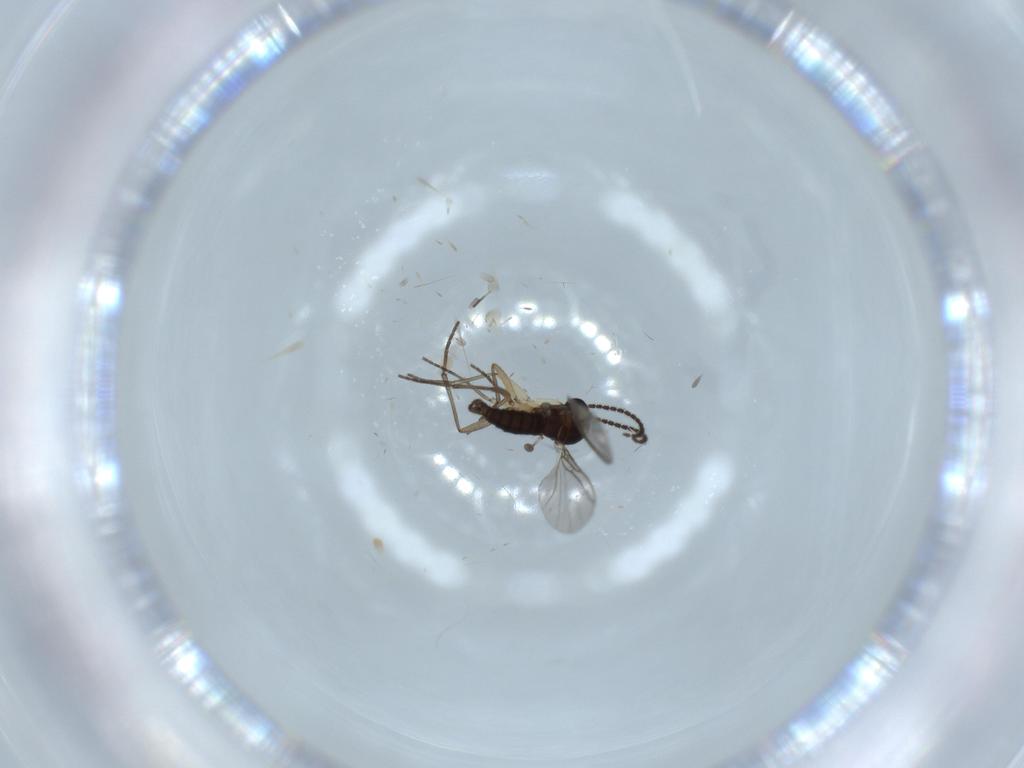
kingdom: Animalia
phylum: Arthropoda
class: Insecta
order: Diptera
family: Sciaridae
